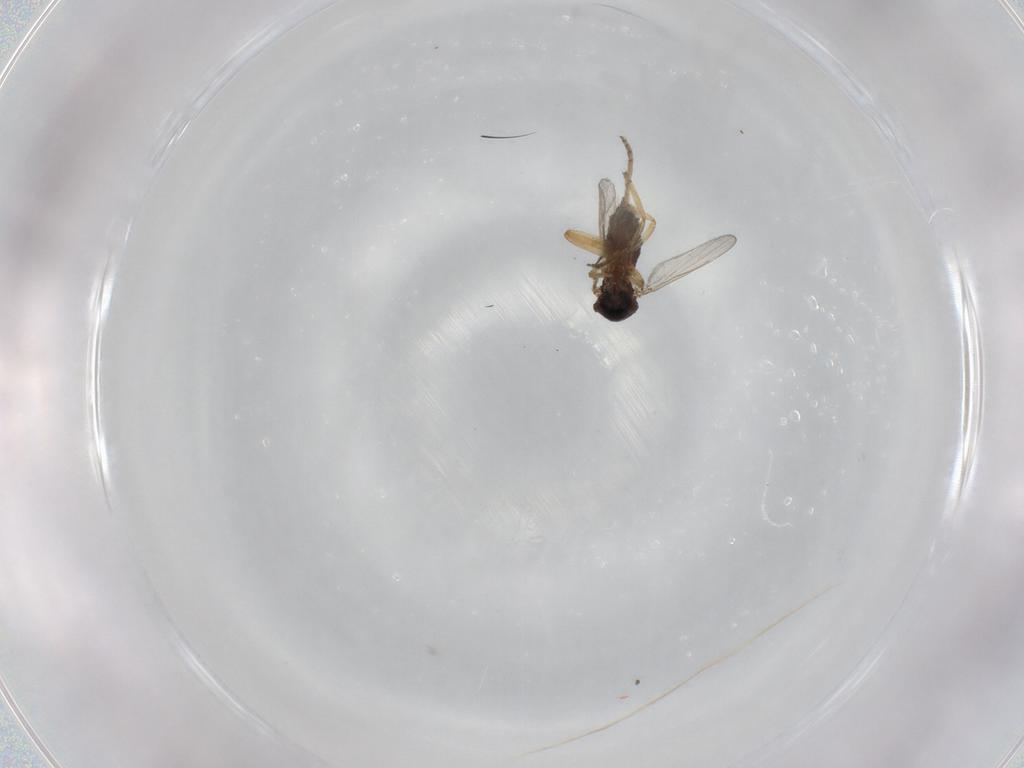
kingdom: Animalia
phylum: Arthropoda
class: Insecta
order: Diptera
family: Ceratopogonidae
